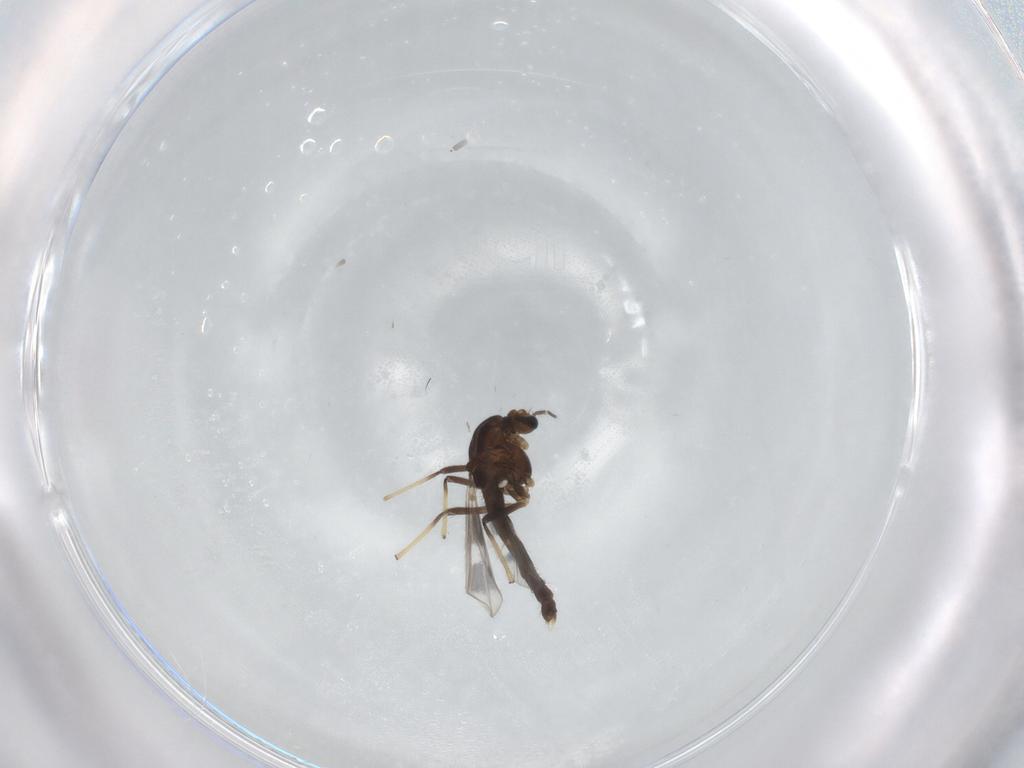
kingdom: Animalia
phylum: Arthropoda
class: Insecta
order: Diptera
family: Chironomidae
